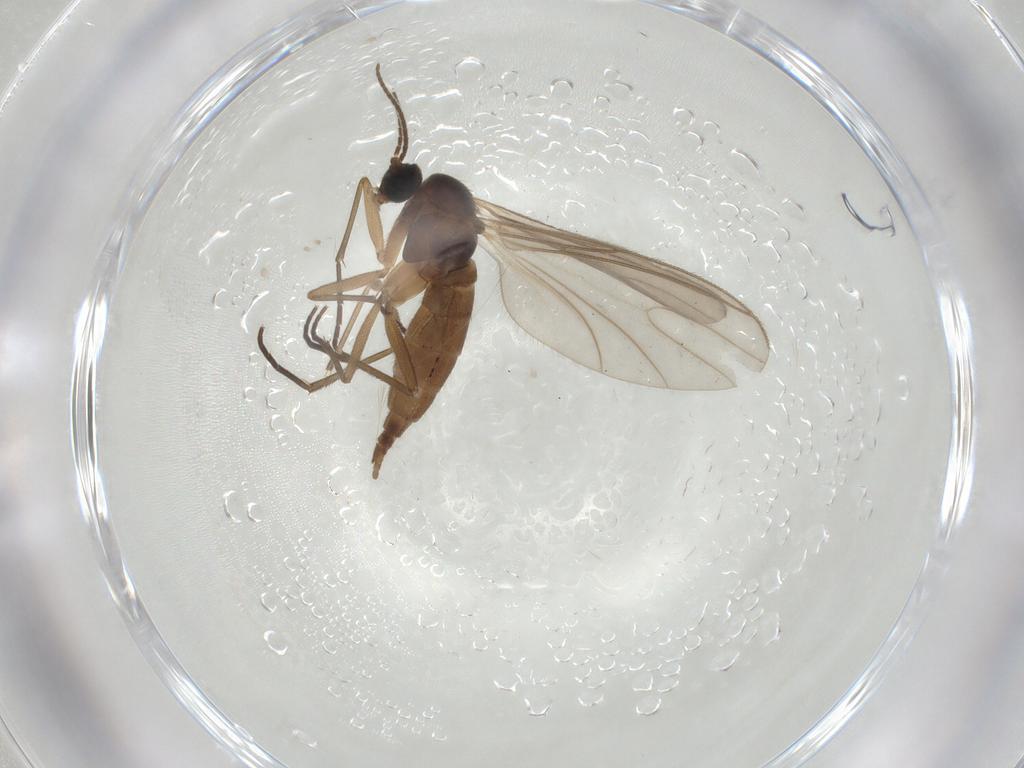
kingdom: Animalia
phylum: Arthropoda
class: Insecta
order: Diptera
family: Sciaridae
